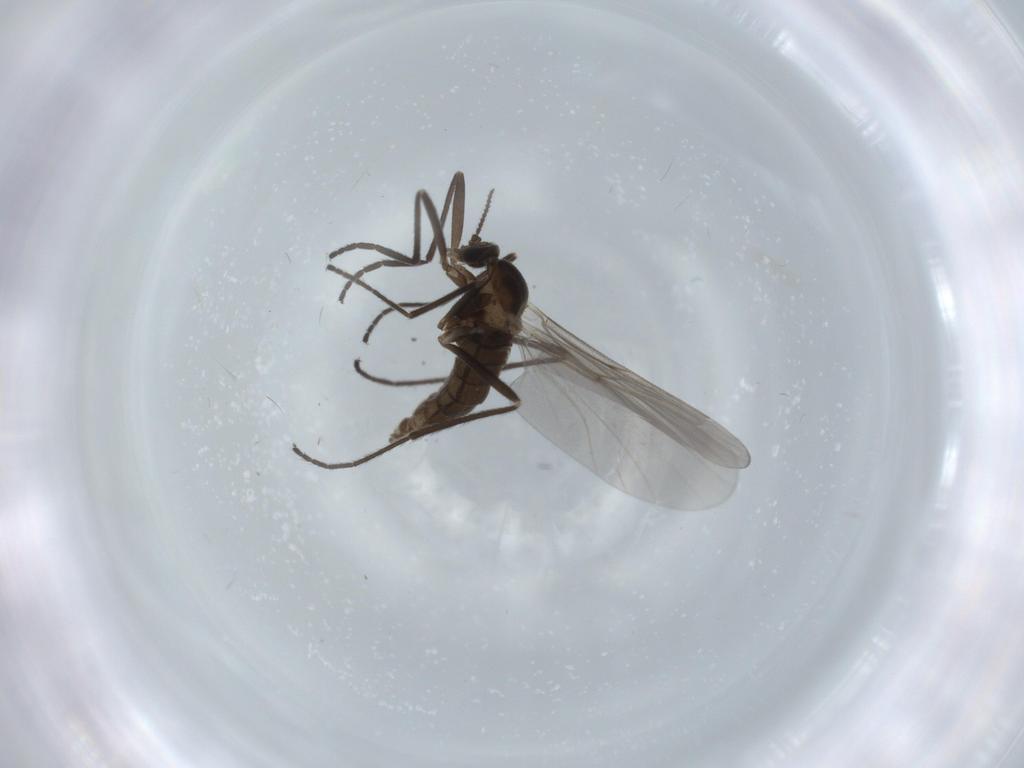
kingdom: Animalia
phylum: Arthropoda
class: Insecta
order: Diptera
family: Cecidomyiidae
